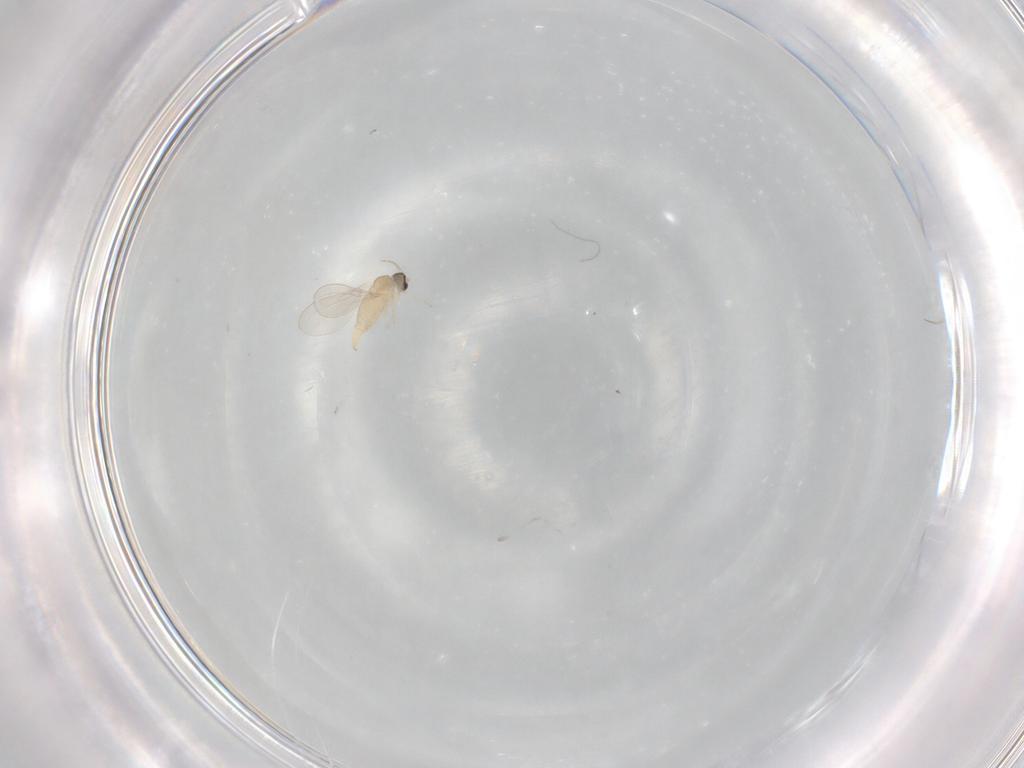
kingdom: Animalia
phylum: Arthropoda
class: Insecta
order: Diptera
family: Cecidomyiidae
